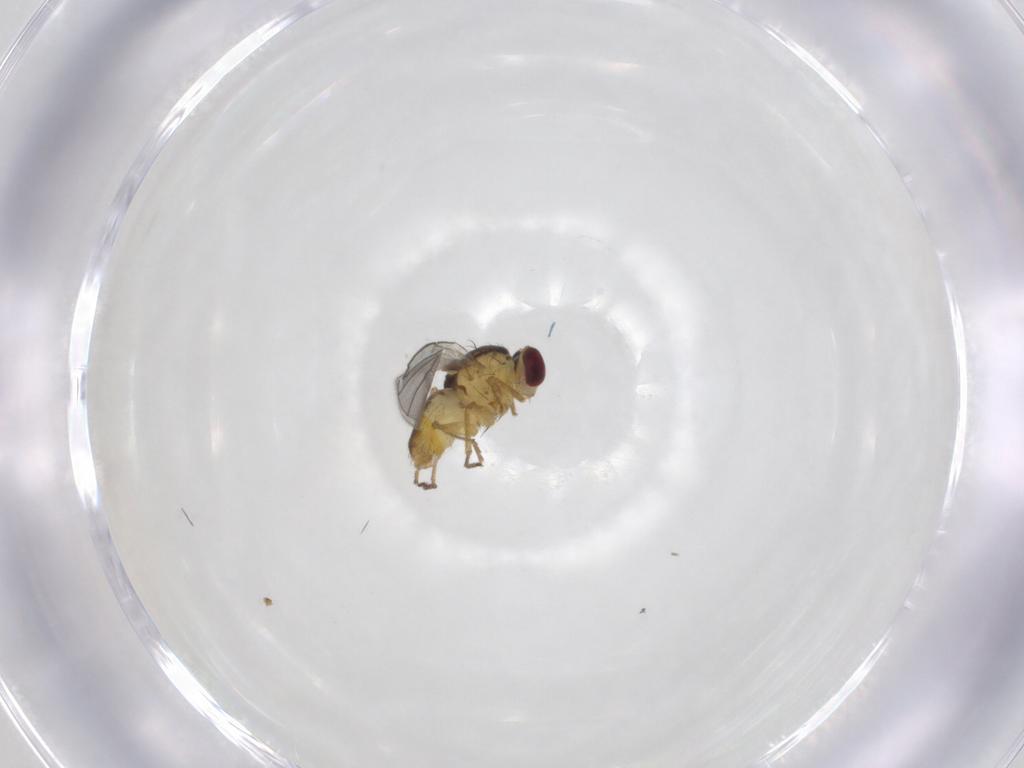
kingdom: Animalia
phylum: Arthropoda
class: Insecta
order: Diptera
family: Agromyzidae
